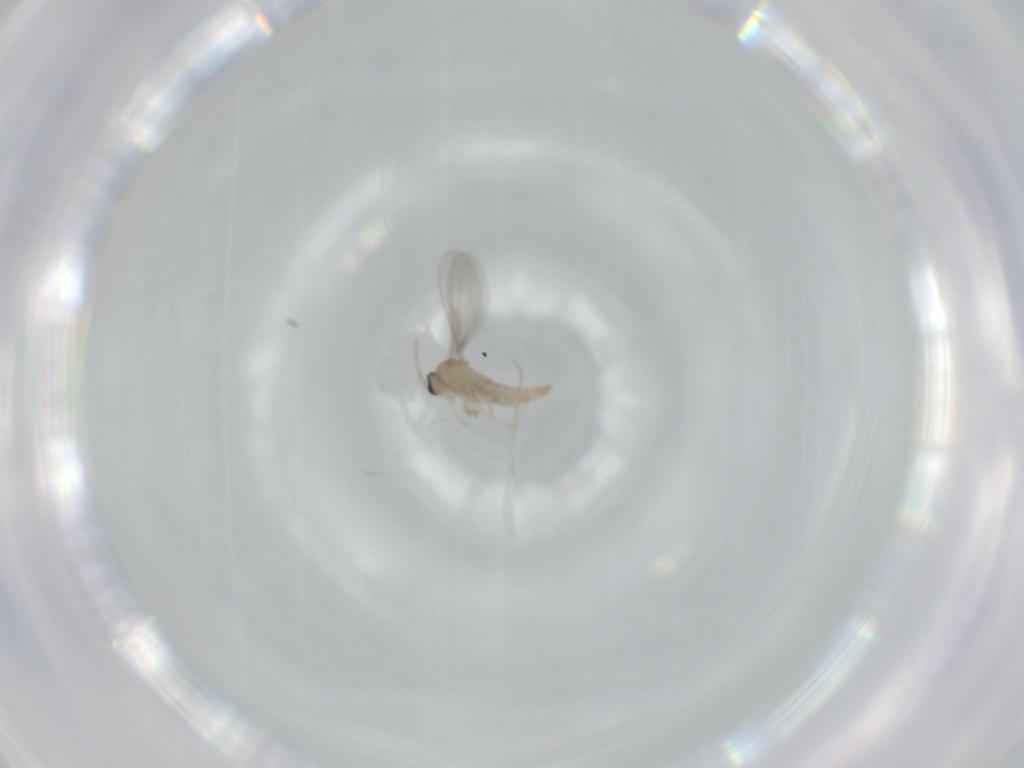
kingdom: Animalia
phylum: Arthropoda
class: Insecta
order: Diptera
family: Cecidomyiidae
